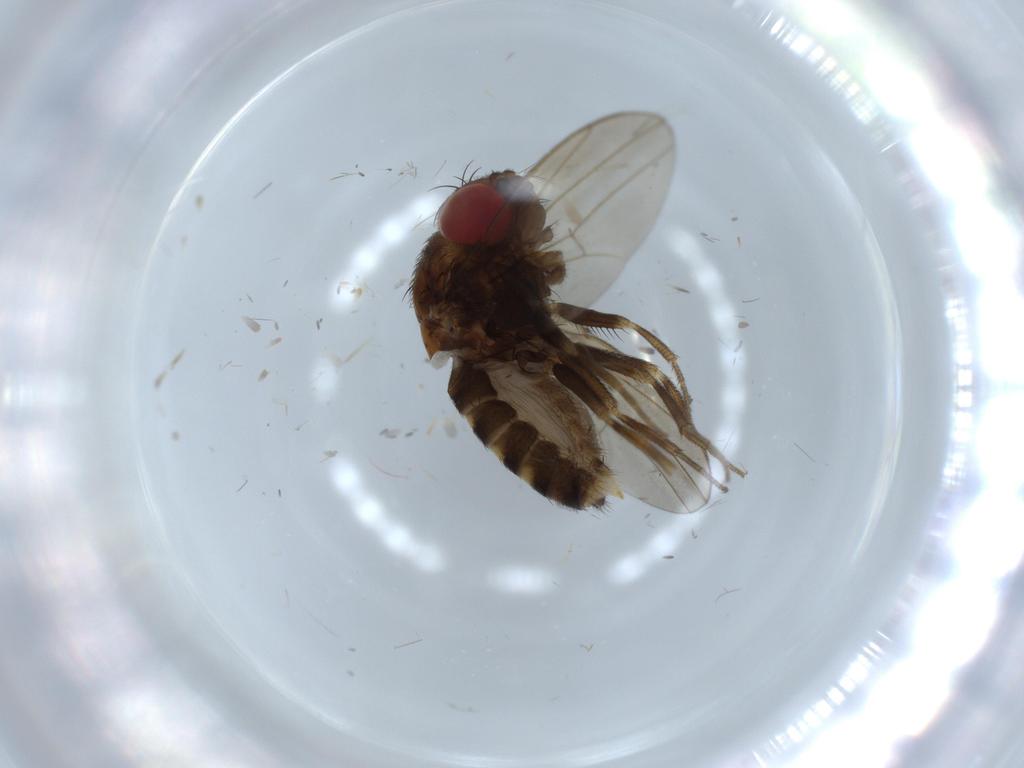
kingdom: Animalia
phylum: Arthropoda
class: Insecta
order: Diptera
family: Drosophilidae
